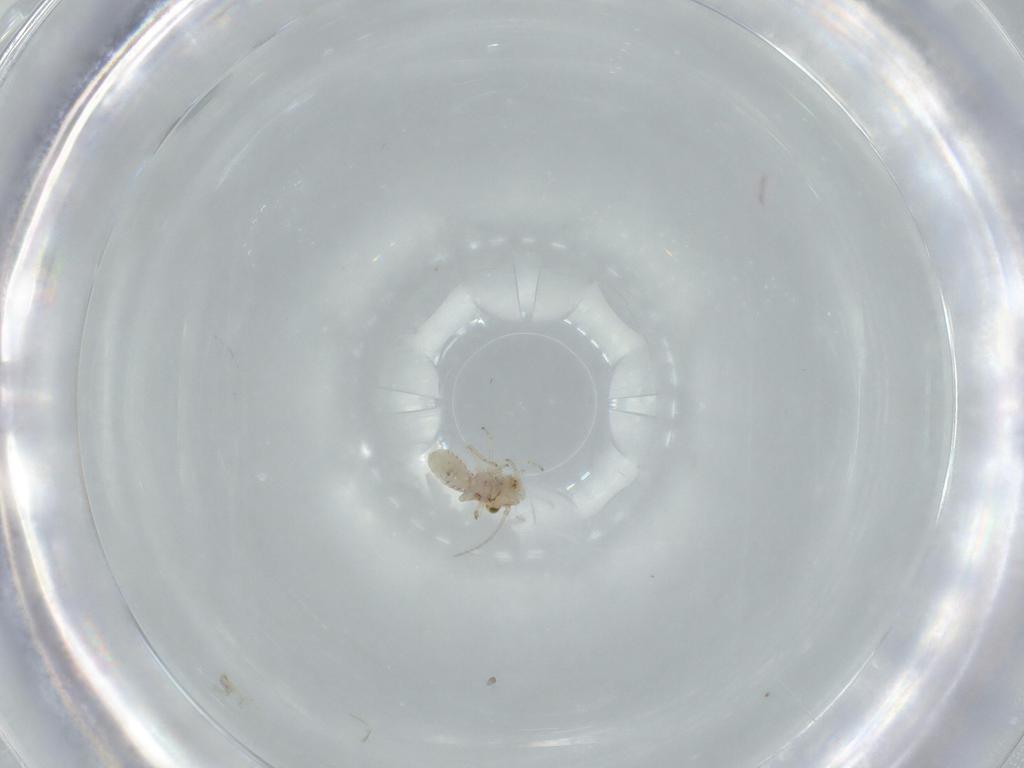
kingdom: Animalia
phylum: Arthropoda
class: Insecta
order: Psocodea
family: Lachesillidae
